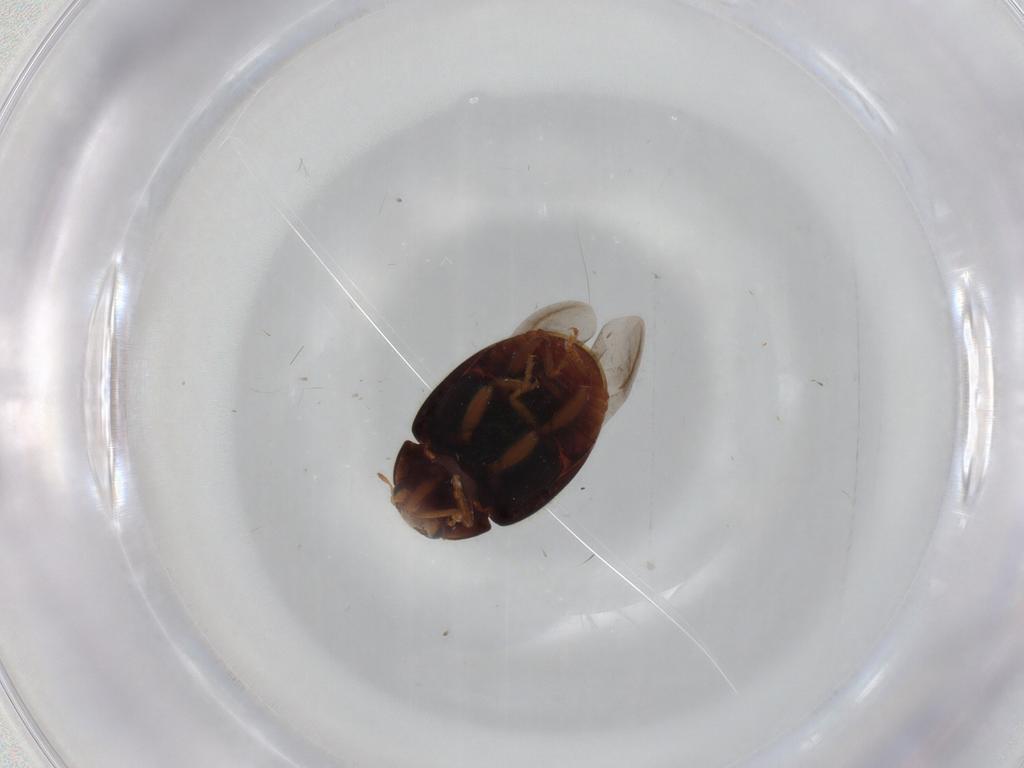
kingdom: Animalia
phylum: Arthropoda
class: Insecta
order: Coleoptera
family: Coccinellidae
